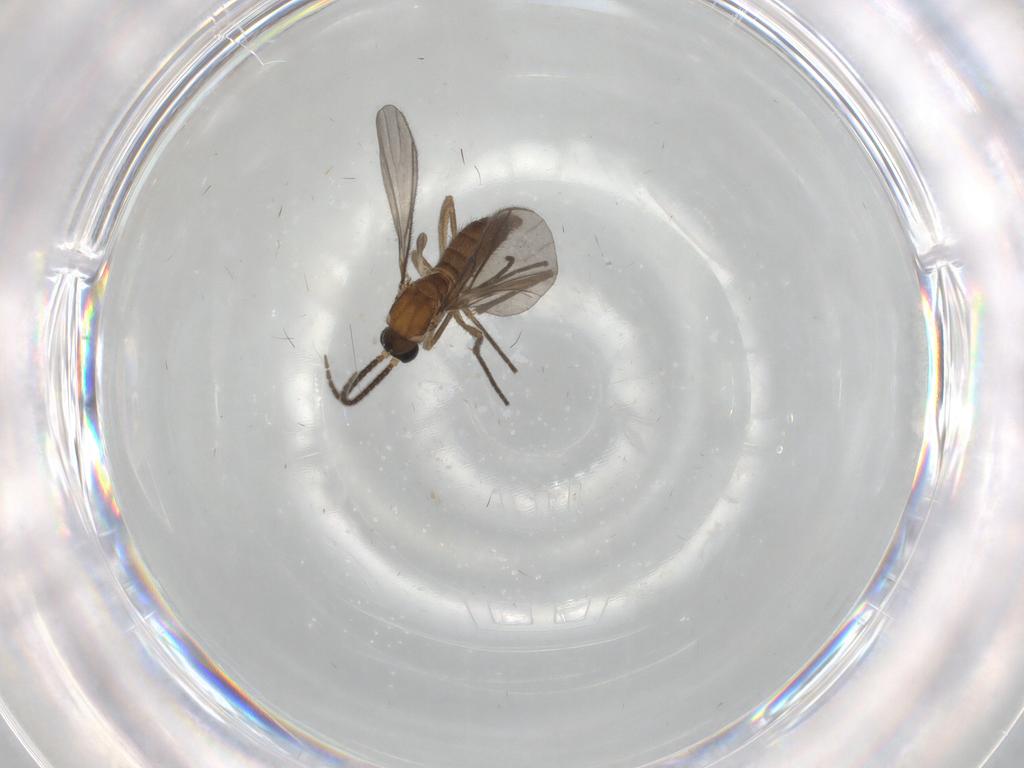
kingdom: Animalia
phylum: Arthropoda
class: Insecta
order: Diptera
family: Sciaridae
